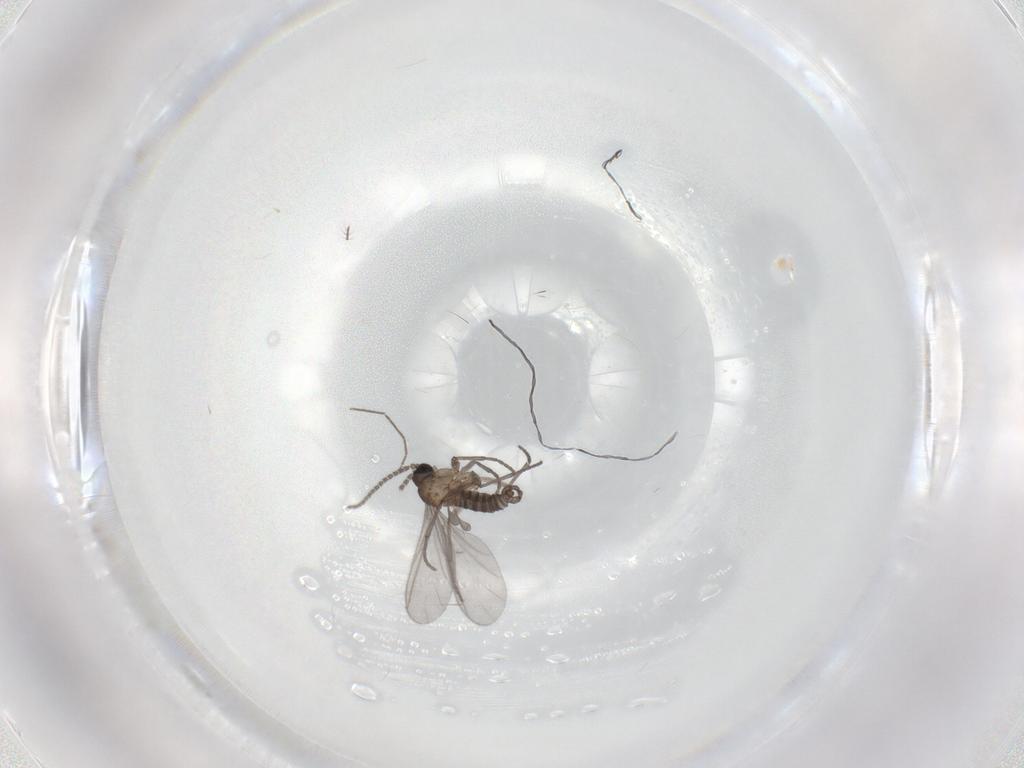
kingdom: Animalia
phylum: Arthropoda
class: Insecta
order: Diptera
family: Sciaridae
